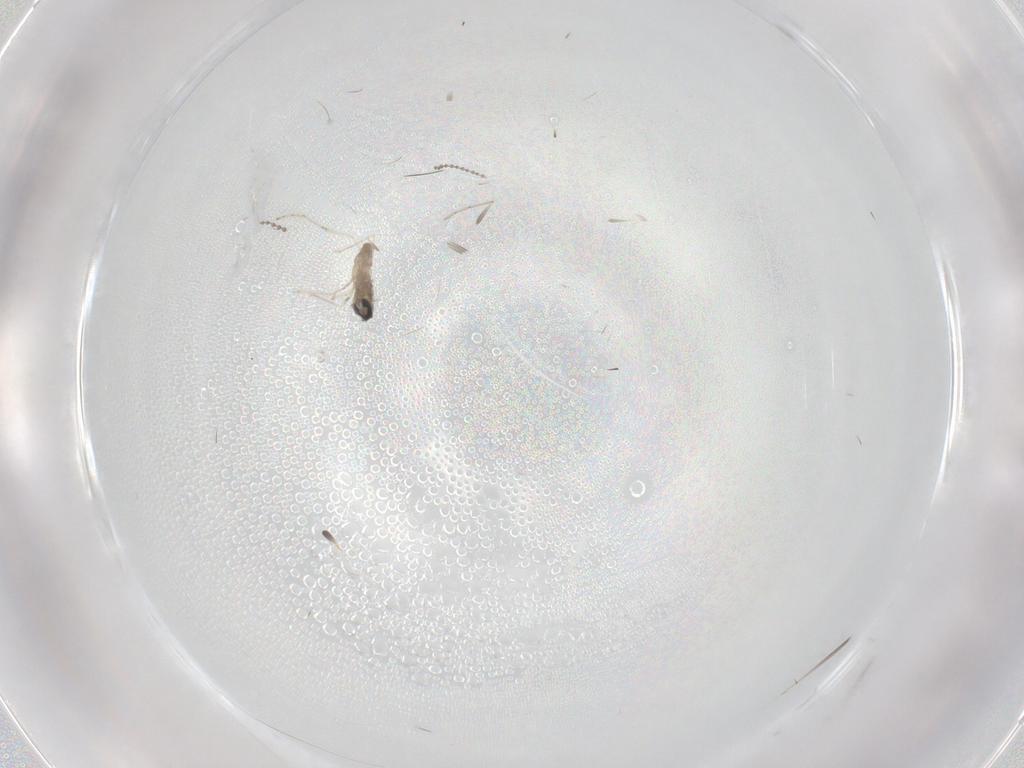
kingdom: Animalia
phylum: Arthropoda
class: Insecta
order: Diptera
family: Cecidomyiidae
